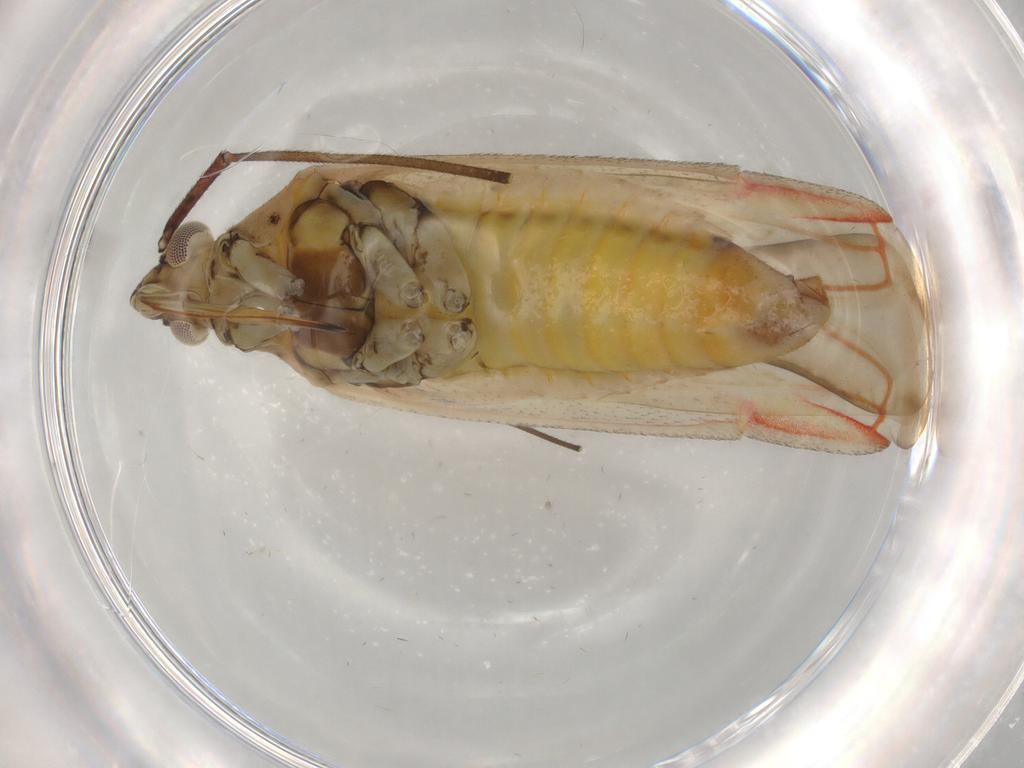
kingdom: Animalia
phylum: Arthropoda
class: Insecta
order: Hemiptera
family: Miridae
